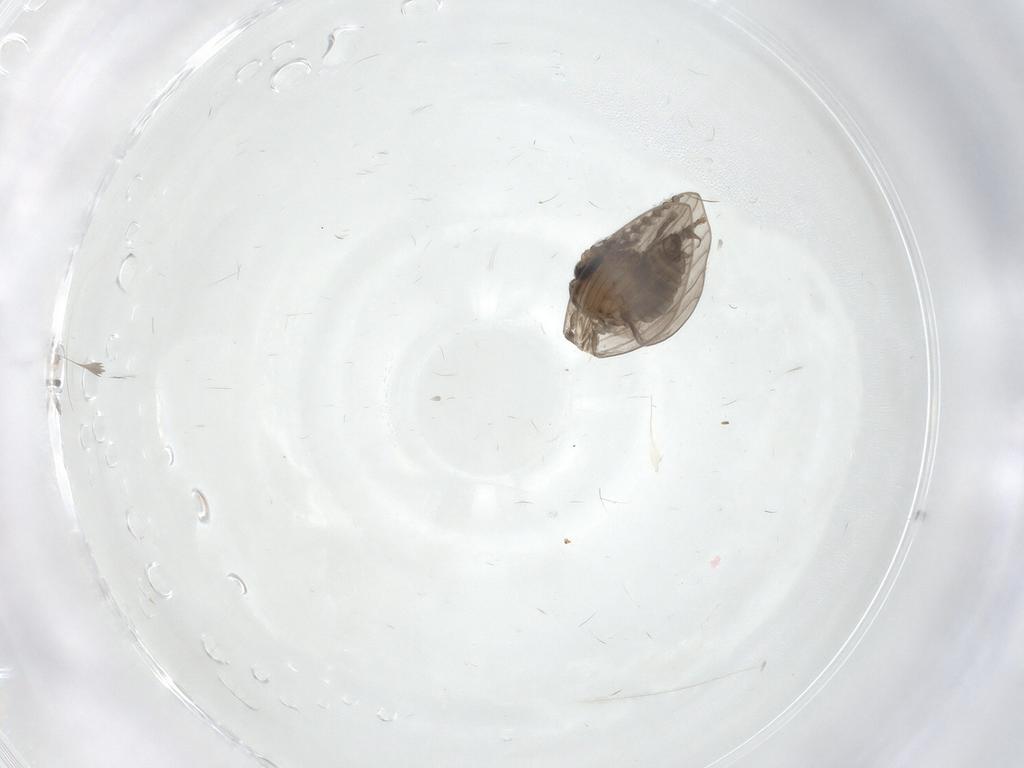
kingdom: Animalia
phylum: Arthropoda
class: Insecta
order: Diptera
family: Psychodidae
